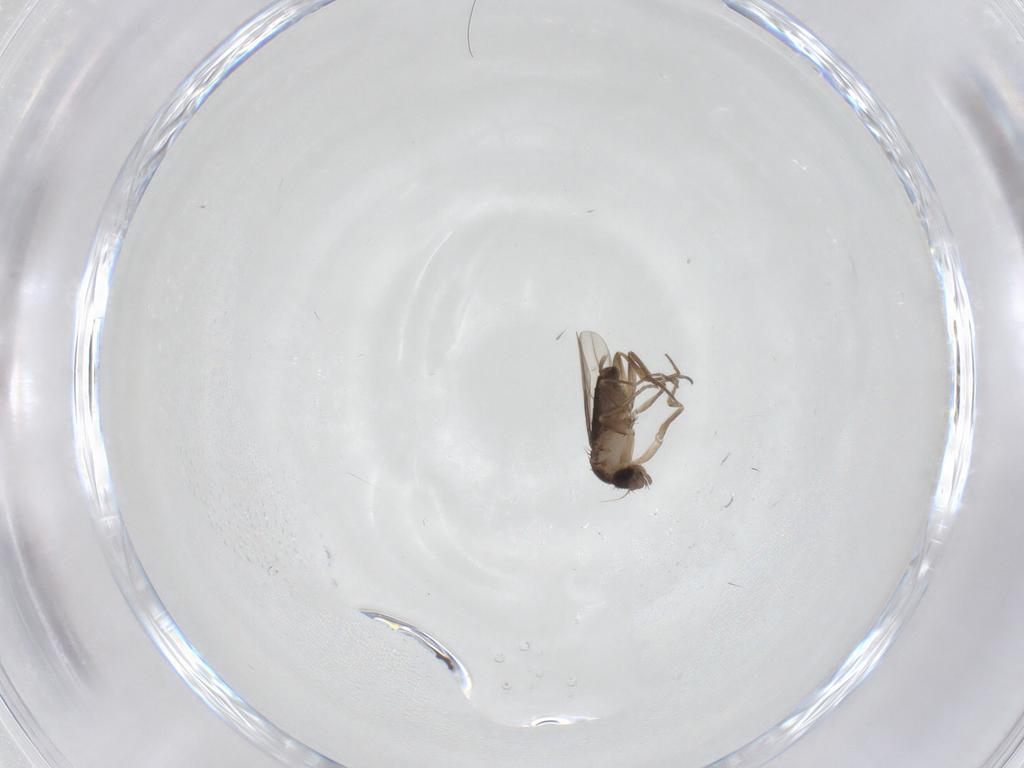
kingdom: Animalia
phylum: Arthropoda
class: Insecta
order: Diptera
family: Phoridae
